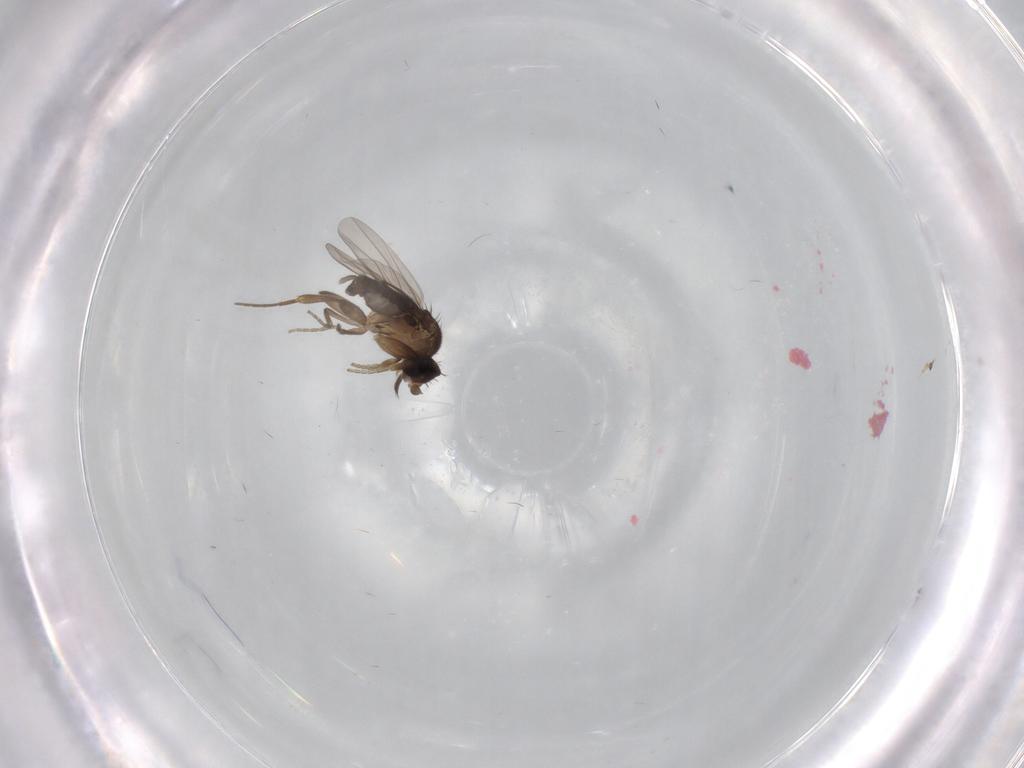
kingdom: Animalia
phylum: Arthropoda
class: Insecta
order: Diptera
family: Phoridae
